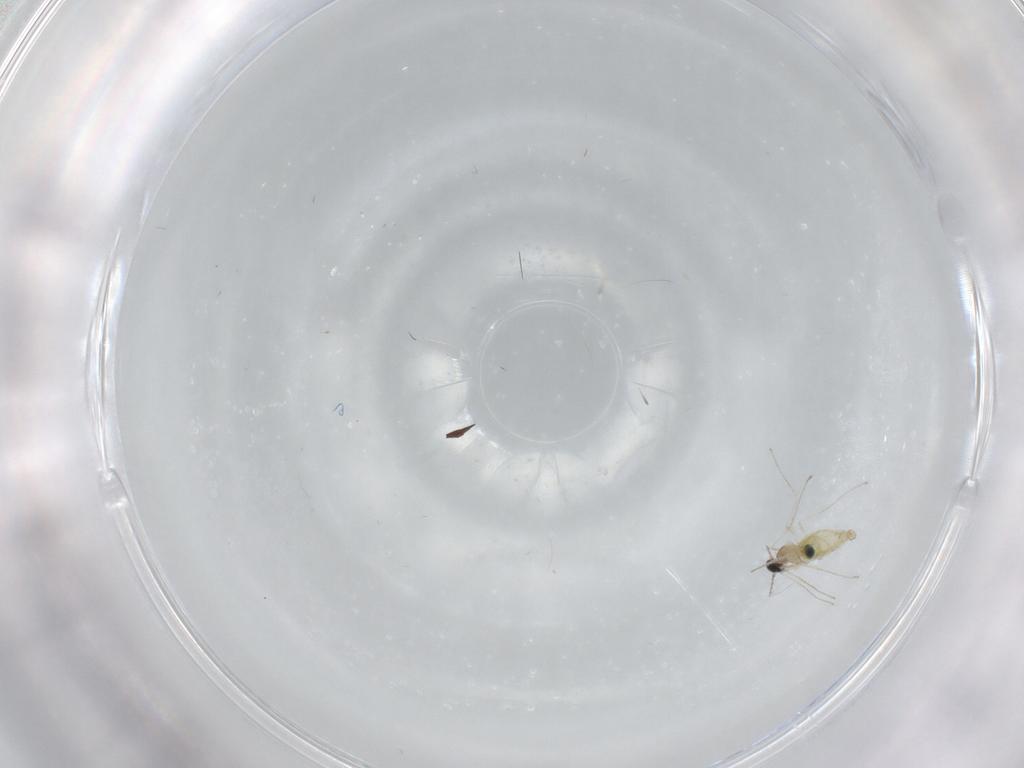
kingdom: Animalia
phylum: Arthropoda
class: Insecta
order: Diptera
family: Cecidomyiidae
